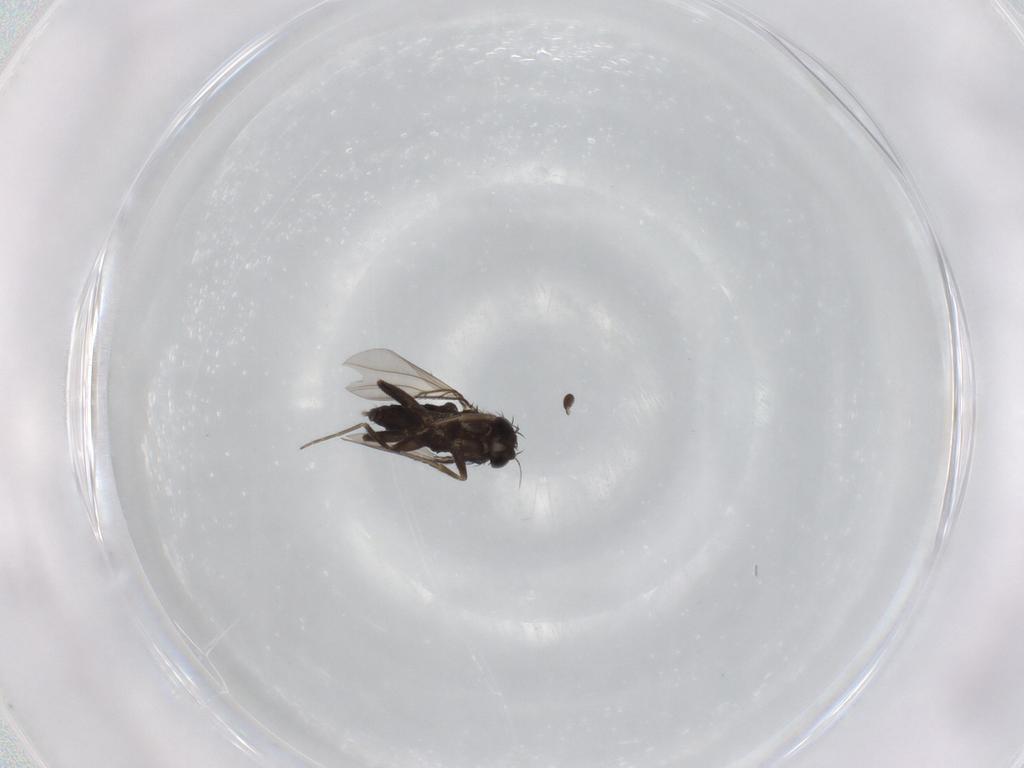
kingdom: Animalia
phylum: Arthropoda
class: Insecta
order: Diptera
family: Phoridae
